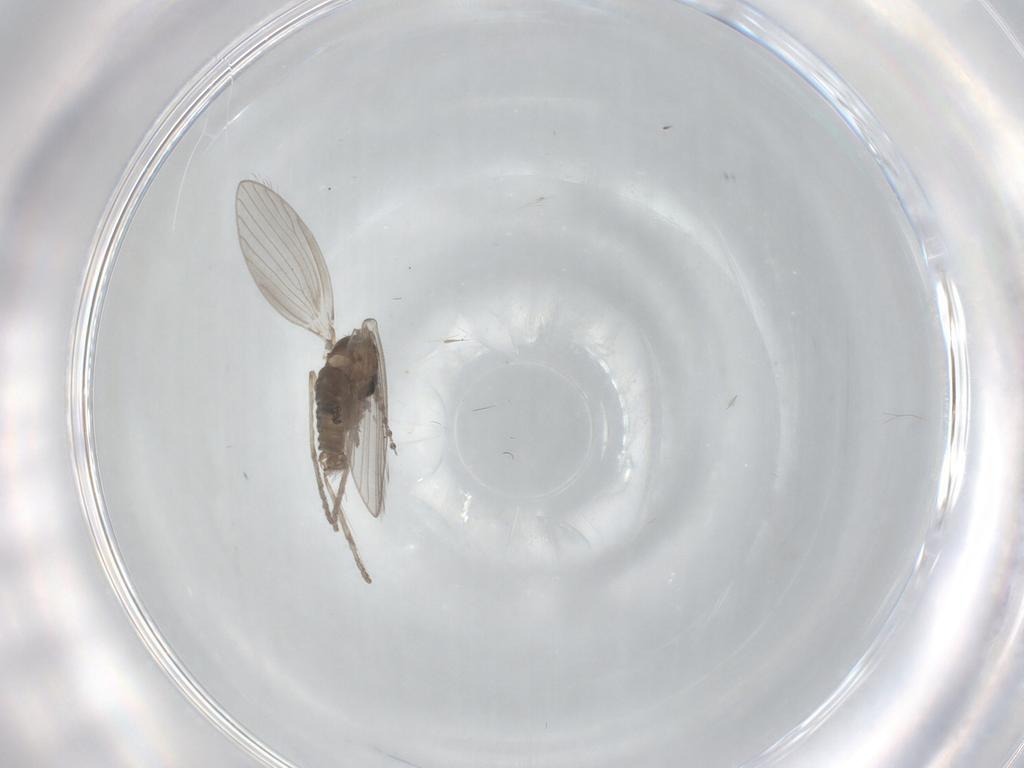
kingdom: Animalia
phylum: Arthropoda
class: Insecta
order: Diptera
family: Psychodidae
